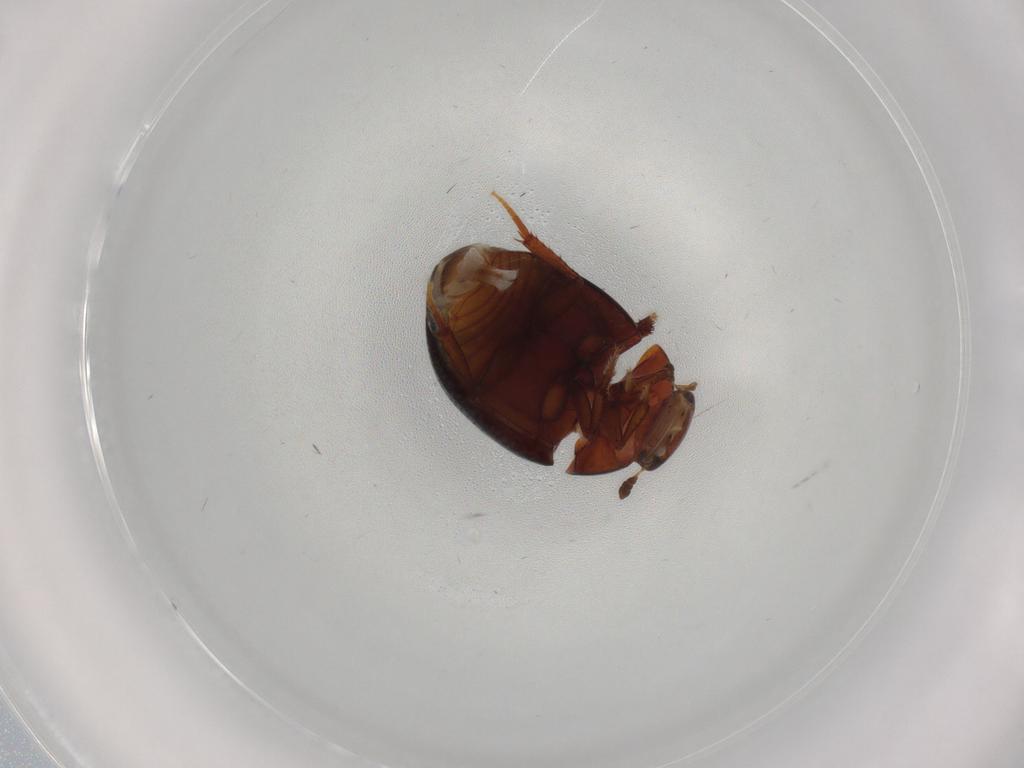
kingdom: Animalia
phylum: Arthropoda
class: Insecta
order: Coleoptera
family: Hydrophilidae
